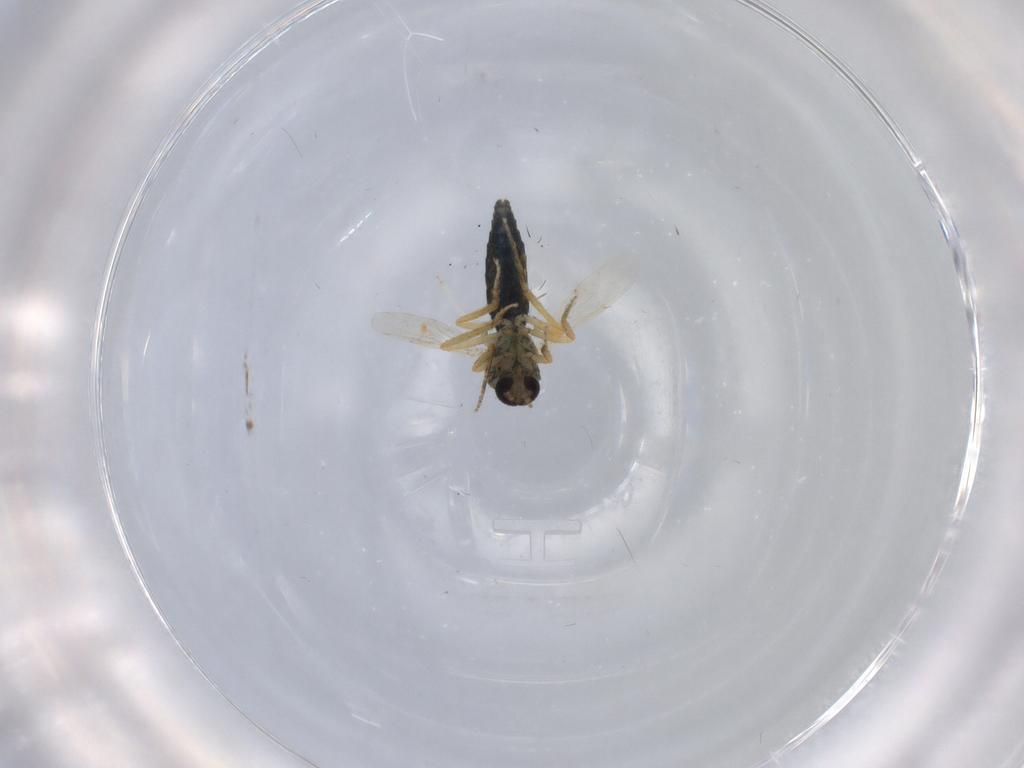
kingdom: Animalia
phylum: Arthropoda
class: Insecta
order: Diptera
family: Ceratopogonidae
